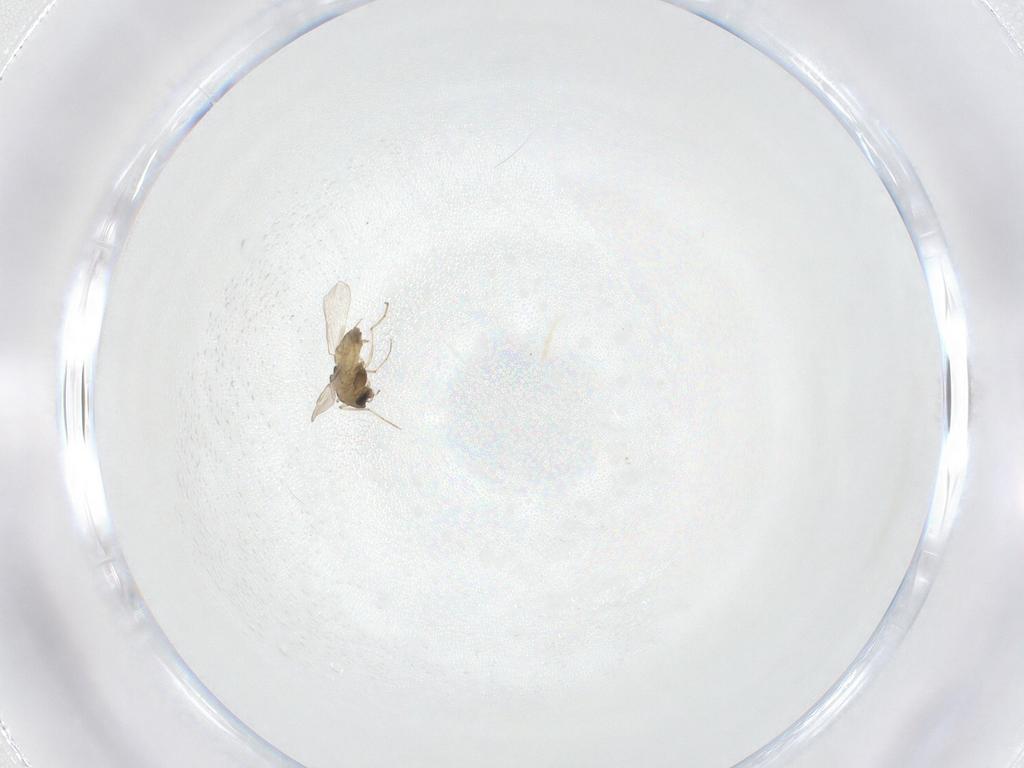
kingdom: Animalia
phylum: Arthropoda
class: Insecta
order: Diptera
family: Chironomidae
